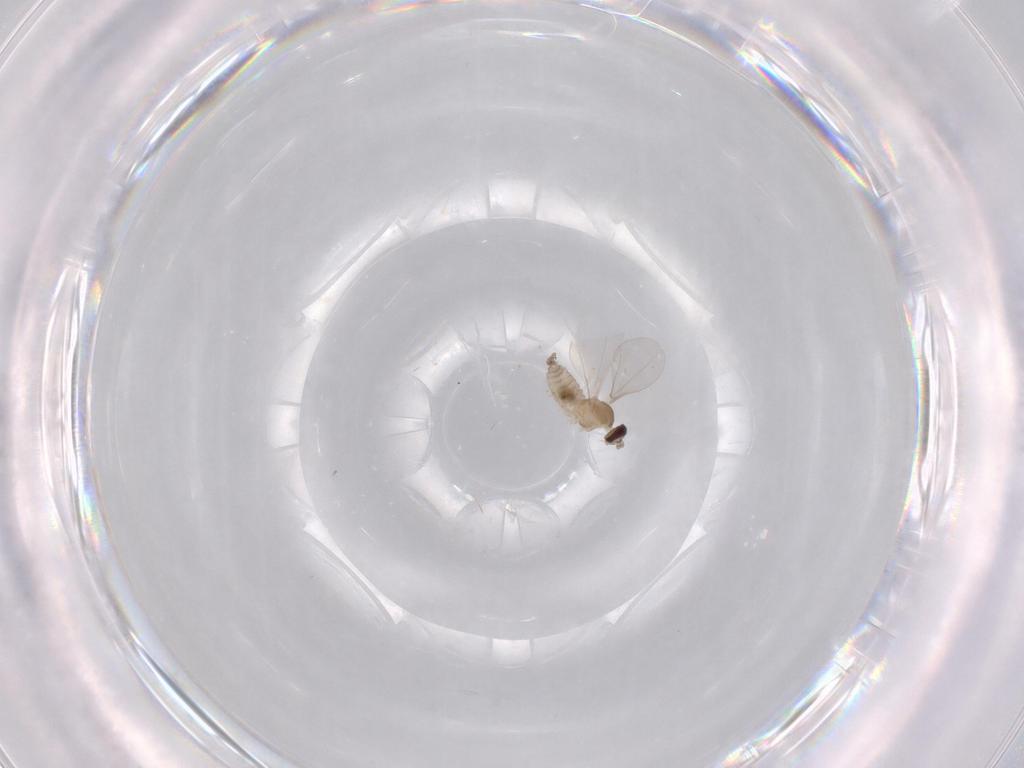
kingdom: Animalia
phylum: Arthropoda
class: Insecta
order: Diptera
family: Cecidomyiidae
